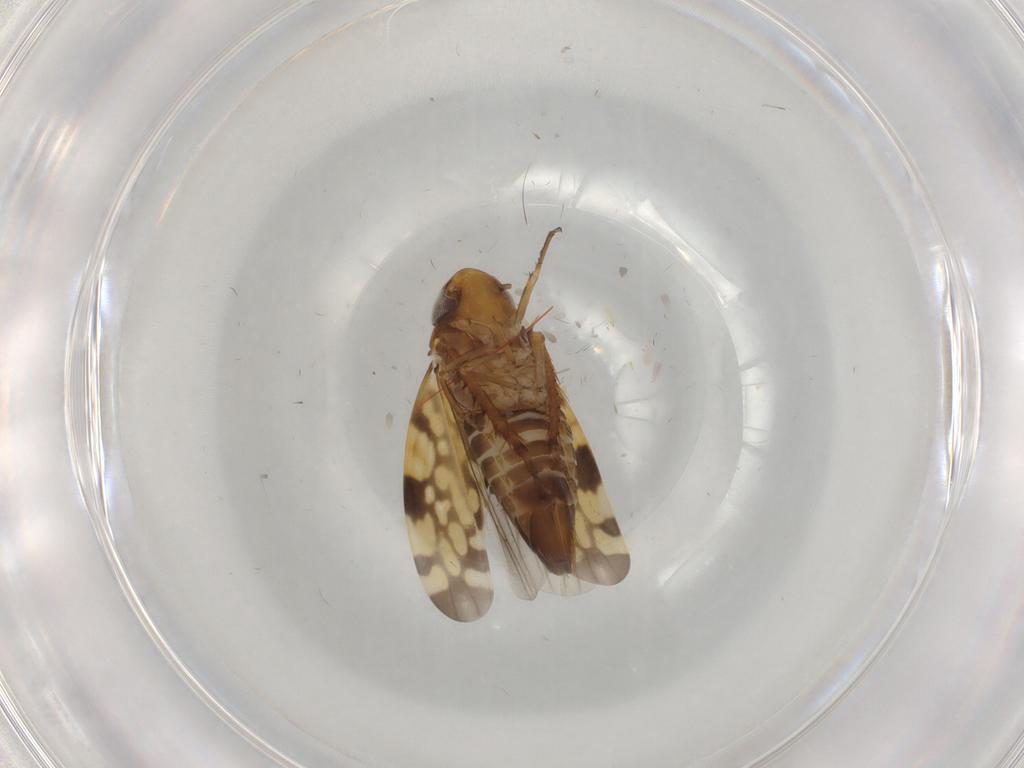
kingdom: Animalia
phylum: Arthropoda
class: Insecta
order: Hemiptera
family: Cicadellidae
